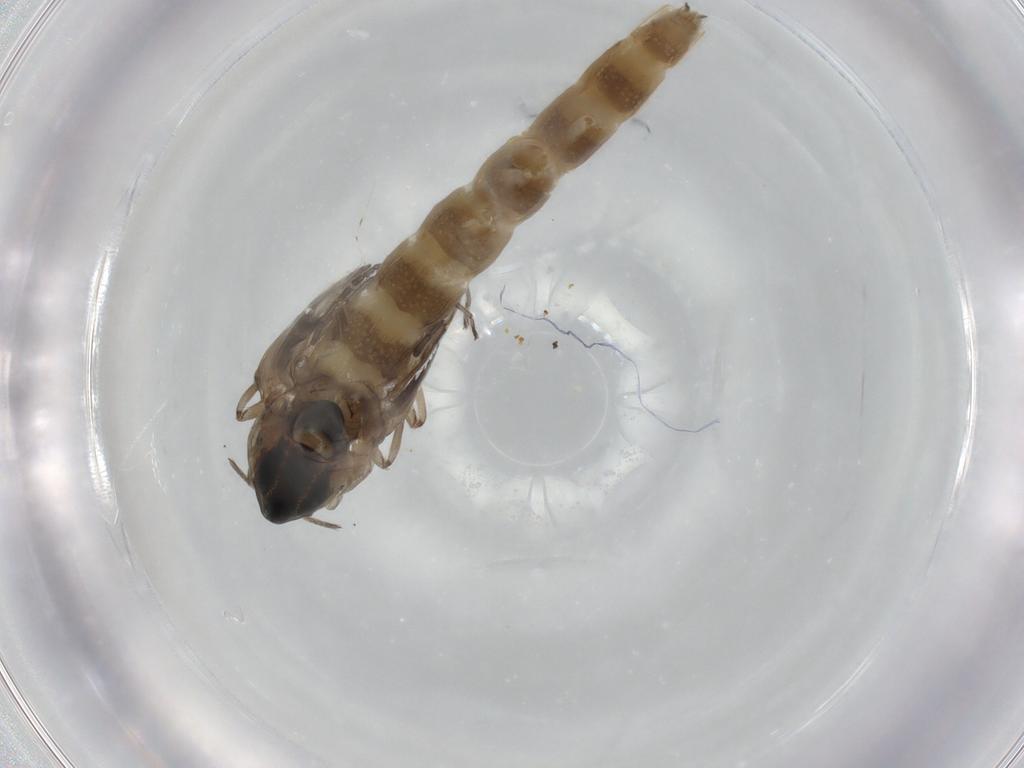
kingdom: Animalia
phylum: Arthropoda
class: Insecta
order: Diptera
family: Chironomidae
